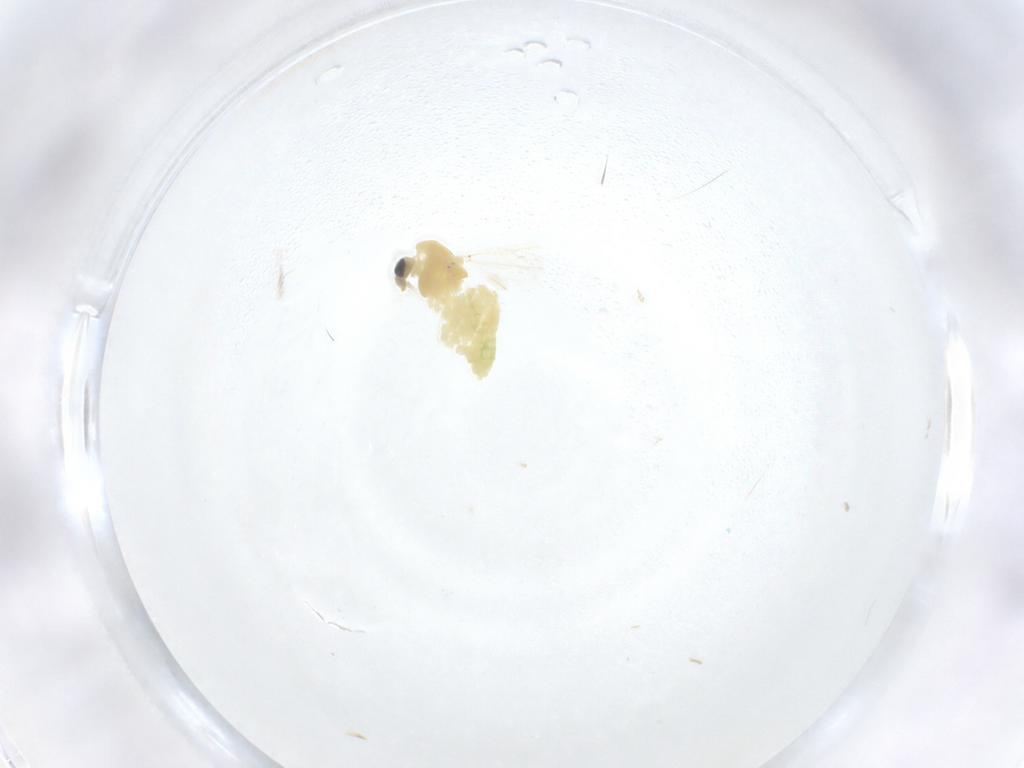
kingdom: Animalia
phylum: Arthropoda
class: Insecta
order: Diptera
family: Chironomidae
